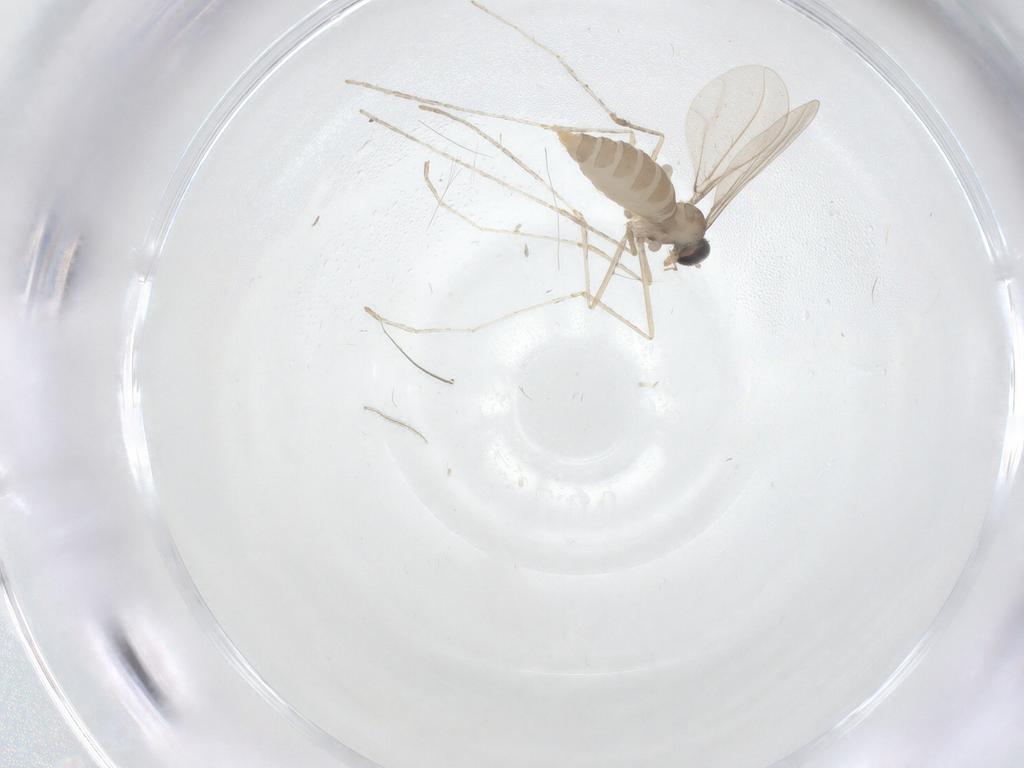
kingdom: Animalia
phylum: Arthropoda
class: Insecta
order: Diptera
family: Cecidomyiidae
